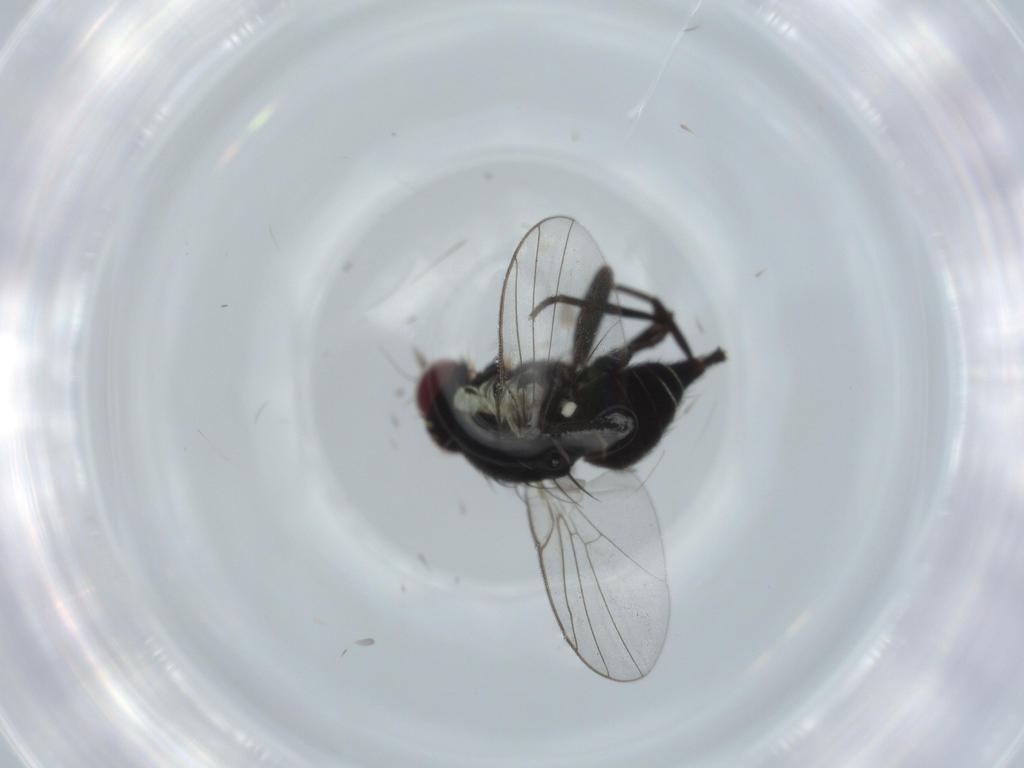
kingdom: Animalia
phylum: Arthropoda
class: Insecta
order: Diptera
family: Agromyzidae
